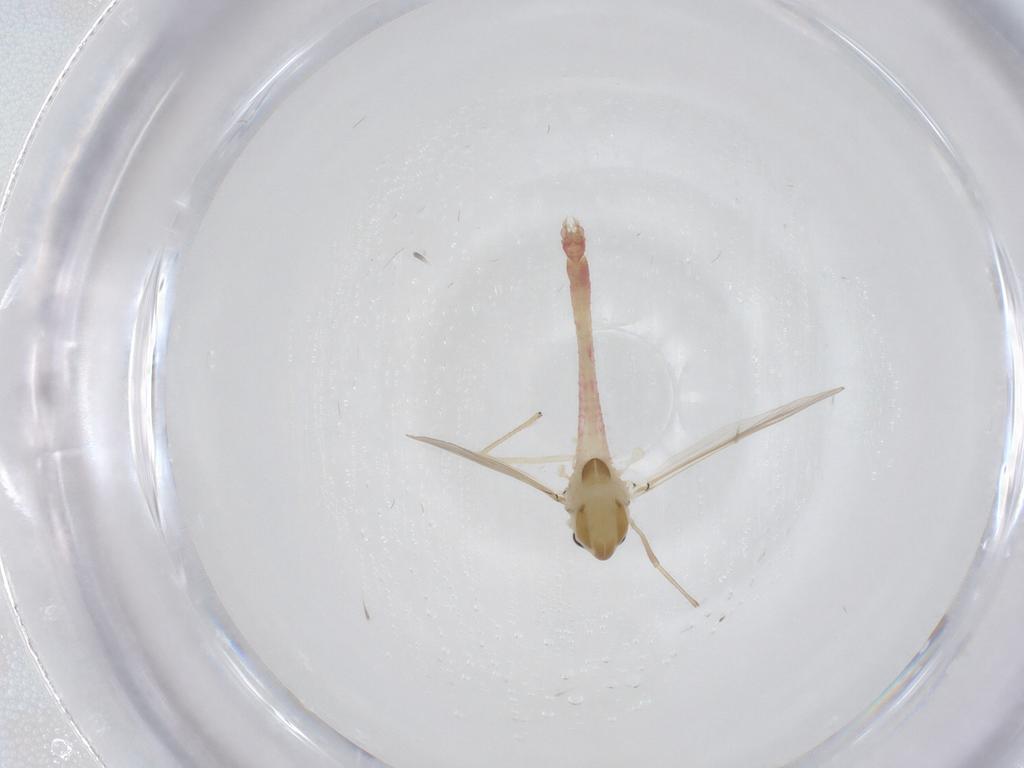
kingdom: Animalia
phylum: Arthropoda
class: Insecta
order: Diptera
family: Chironomidae
